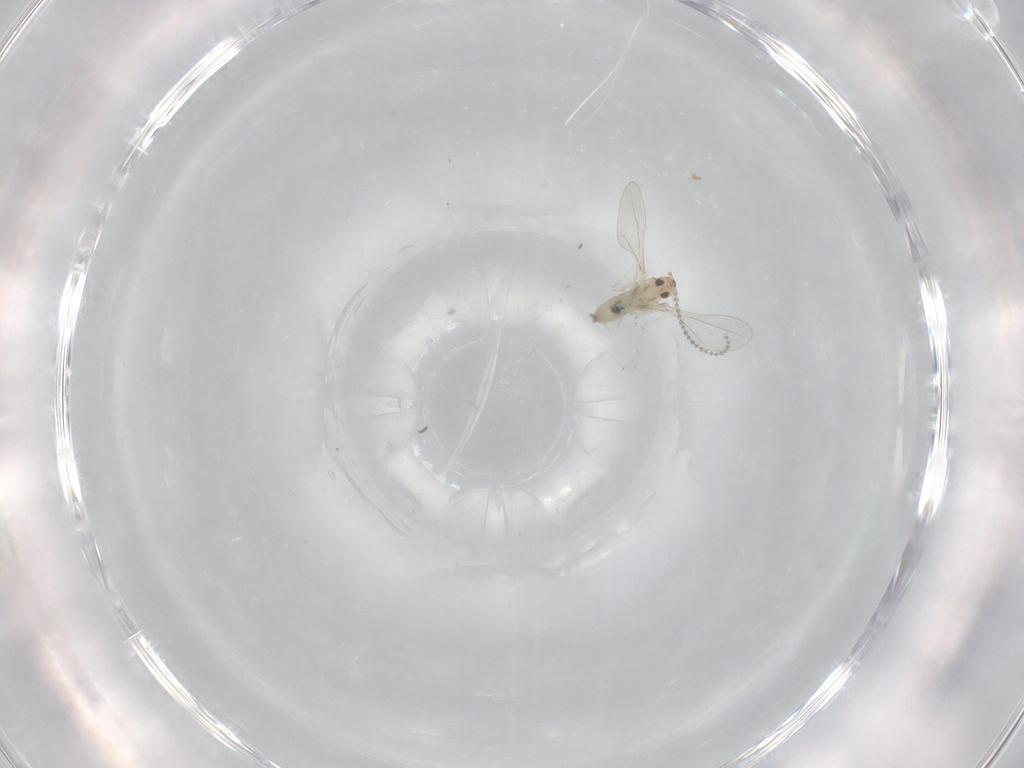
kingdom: Animalia
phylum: Arthropoda
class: Insecta
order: Diptera
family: Cecidomyiidae
